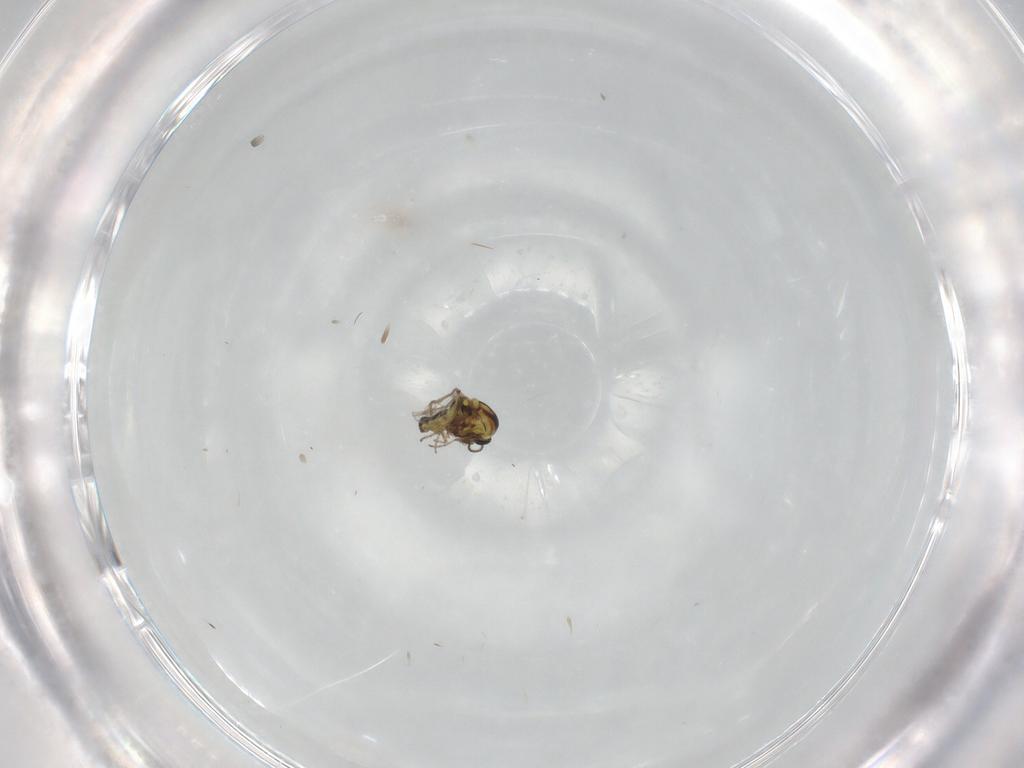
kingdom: Animalia
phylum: Arthropoda
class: Insecta
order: Diptera
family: Ceratopogonidae
